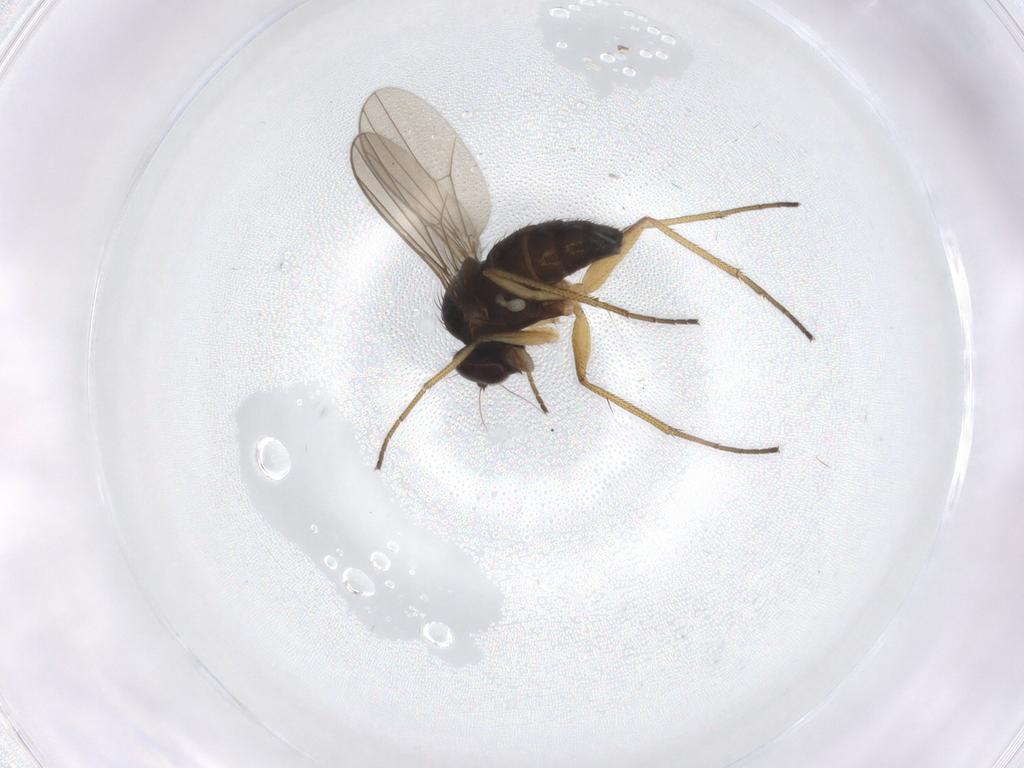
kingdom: Animalia
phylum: Arthropoda
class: Insecta
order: Diptera
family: Dolichopodidae
